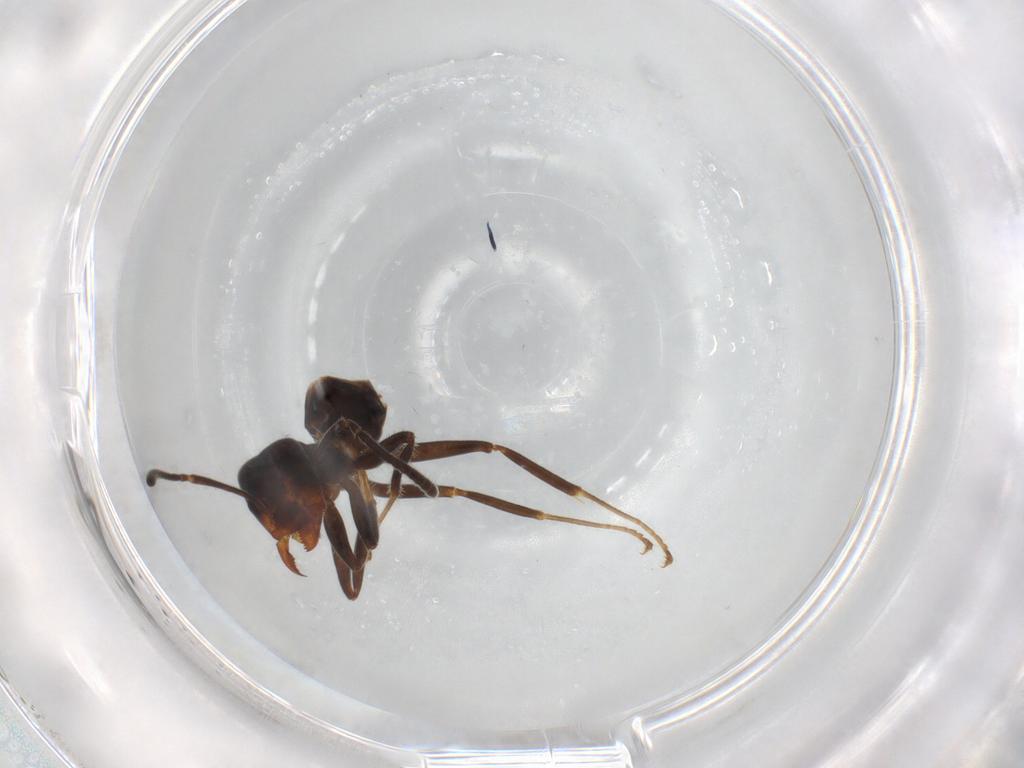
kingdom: Animalia
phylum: Arthropoda
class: Insecta
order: Hymenoptera
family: Formicidae
